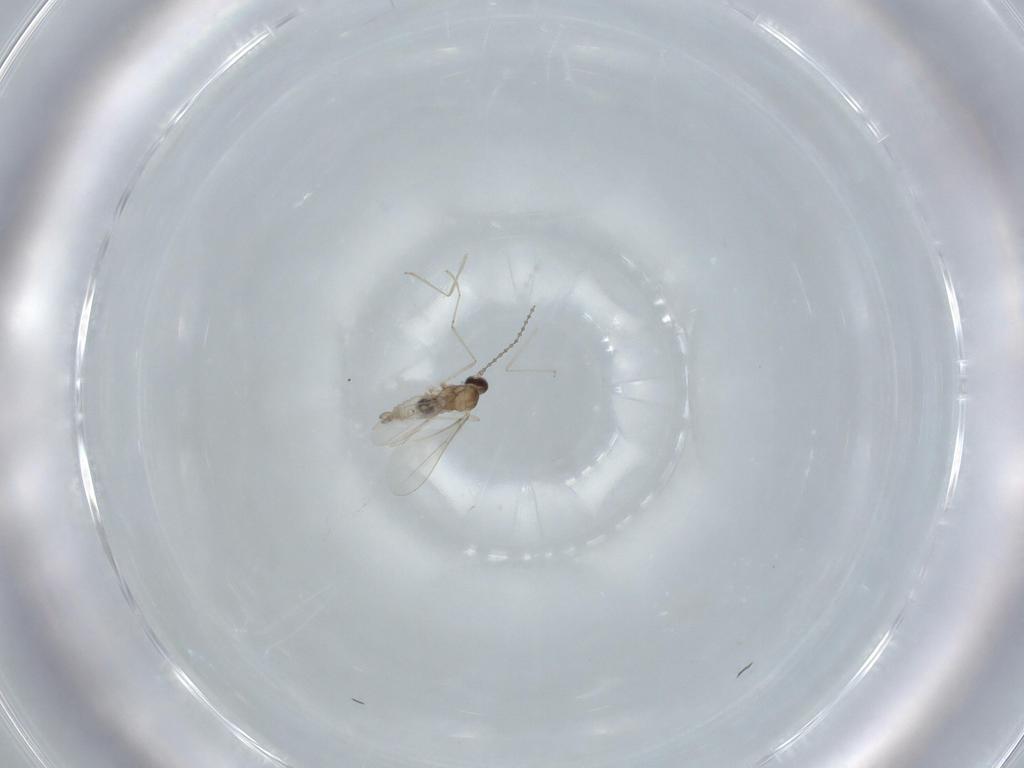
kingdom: Animalia
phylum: Arthropoda
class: Insecta
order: Diptera
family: Cecidomyiidae
